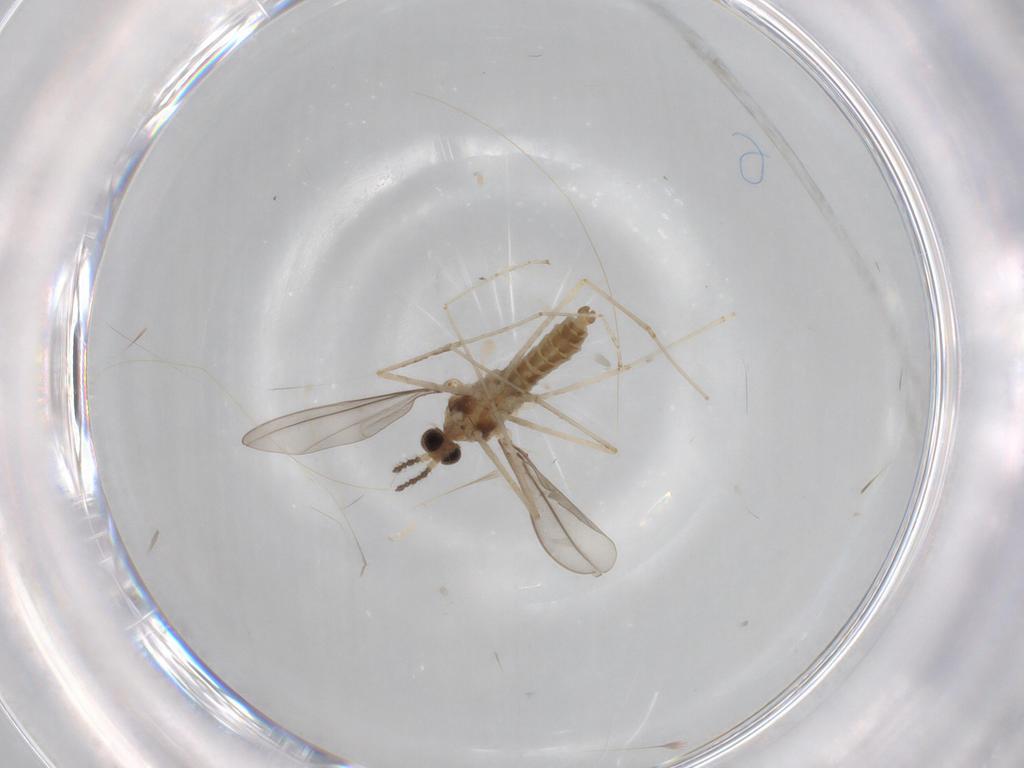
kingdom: Animalia
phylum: Arthropoda
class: Insecta
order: Diptera
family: Cecidomyiidae
